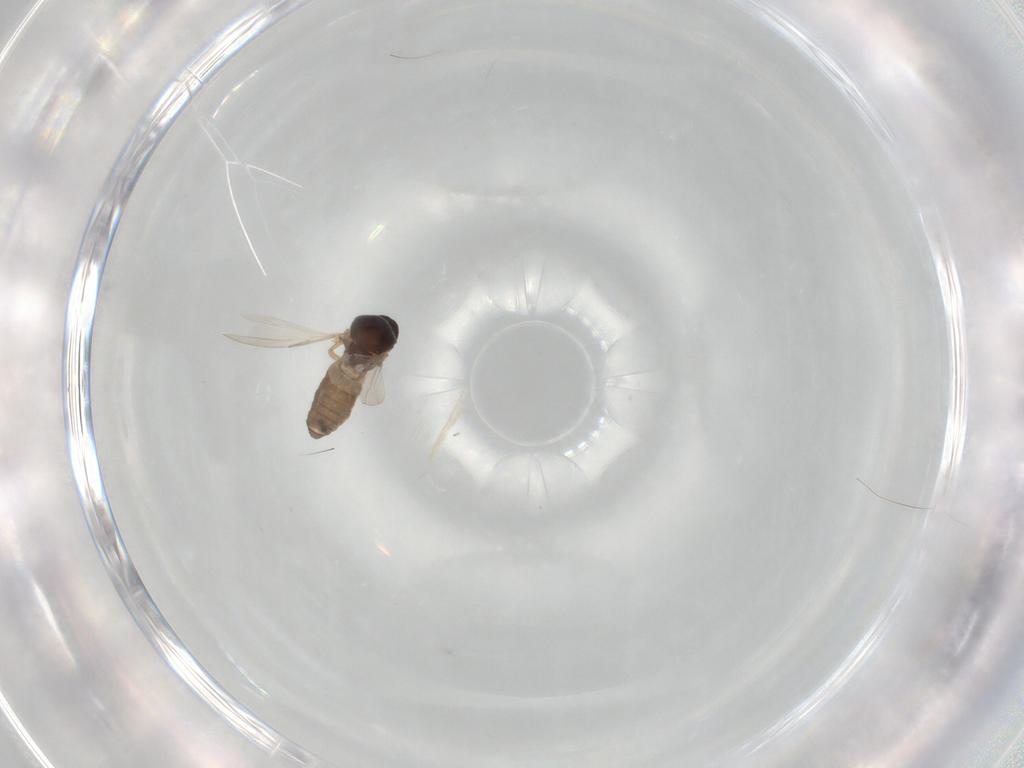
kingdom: Animalia
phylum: Arthropoda
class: Insecta
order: Diptera
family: Ceratopogonidae
